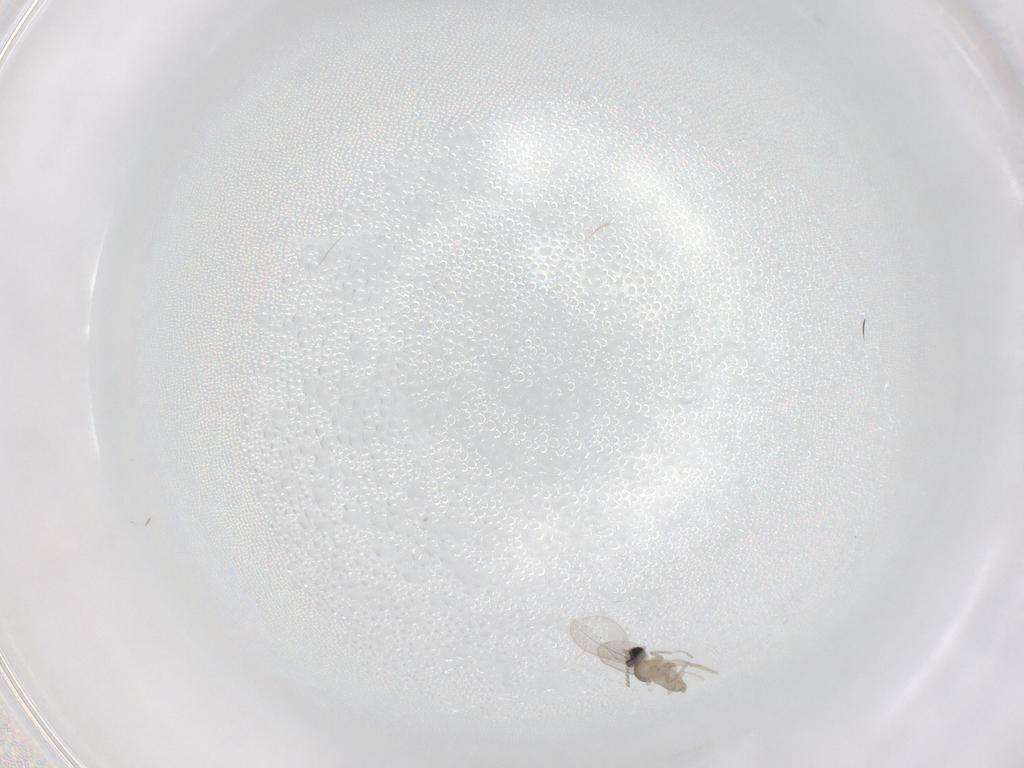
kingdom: Animalia
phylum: Arthropoda
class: Insecta
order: Diptera
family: Cecidomyiidae
